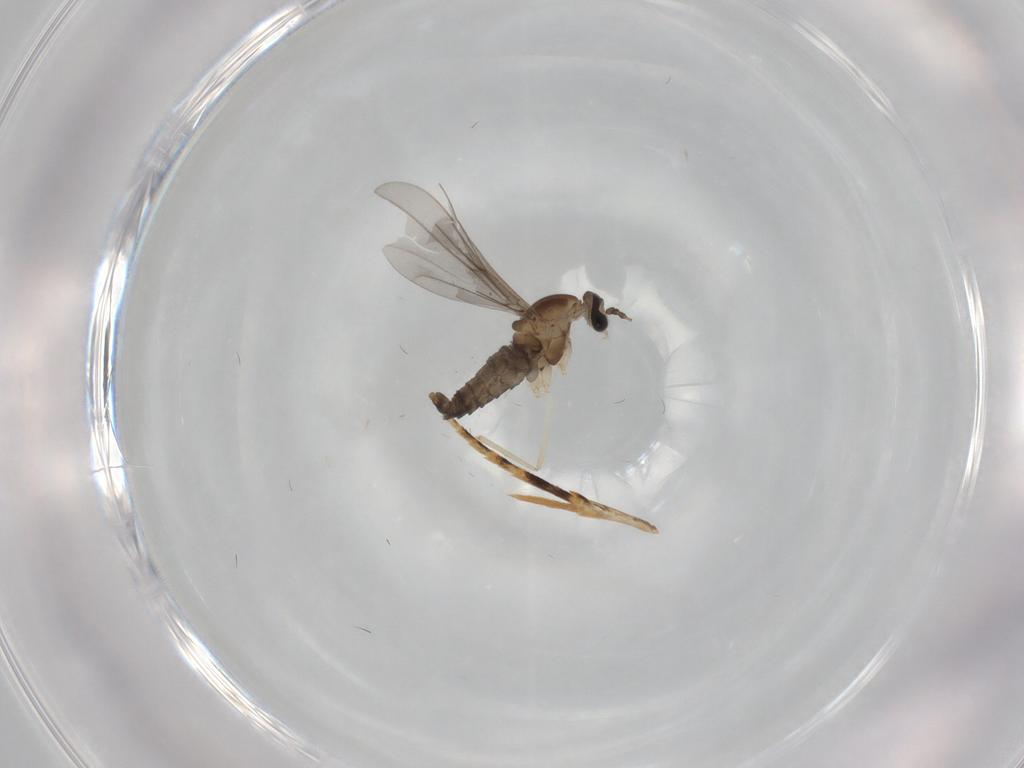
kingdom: Animalia
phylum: Arthropoda
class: Insecta
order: Diptera
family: Cecidomyiidae
